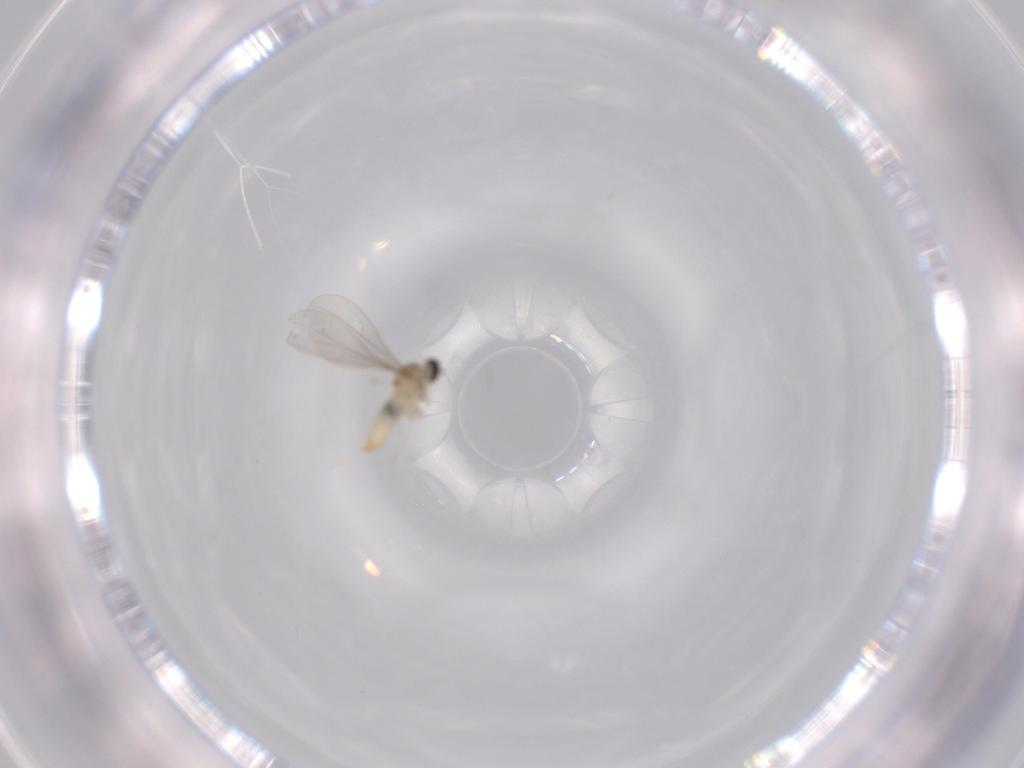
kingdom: Animalia
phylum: Arthropoda
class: Insecta
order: Diptera
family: Cecidomyiidae
